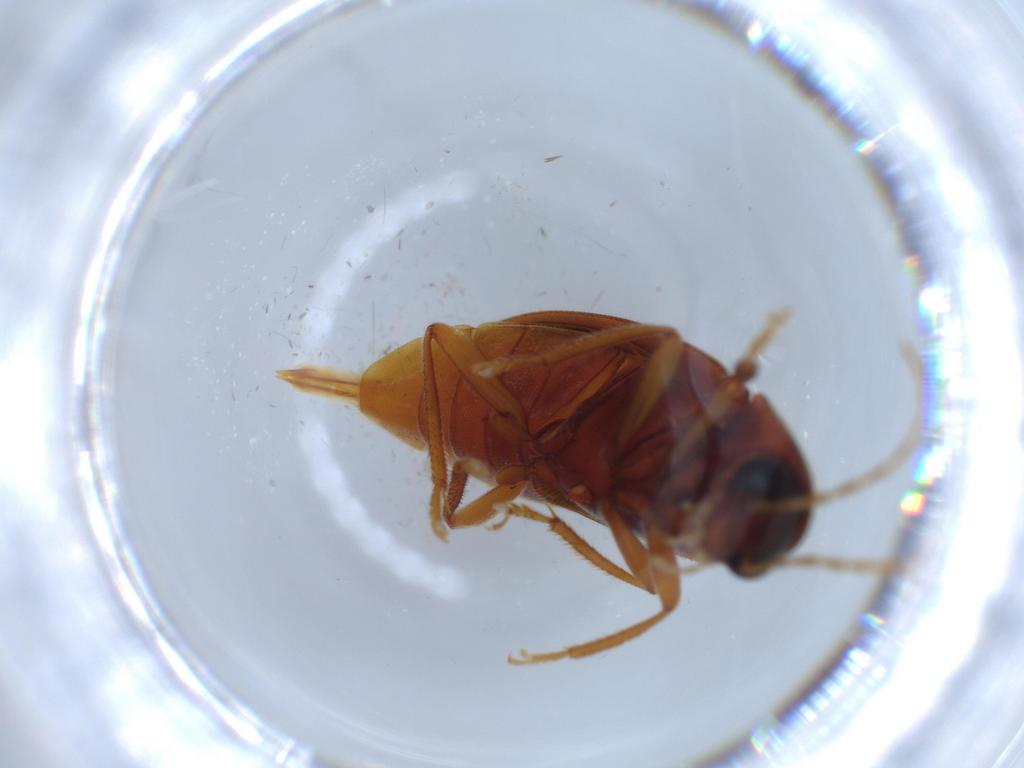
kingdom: Animalia
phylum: Arthropoda
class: Insecta
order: Coleoptera
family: Ptilodactylidae
